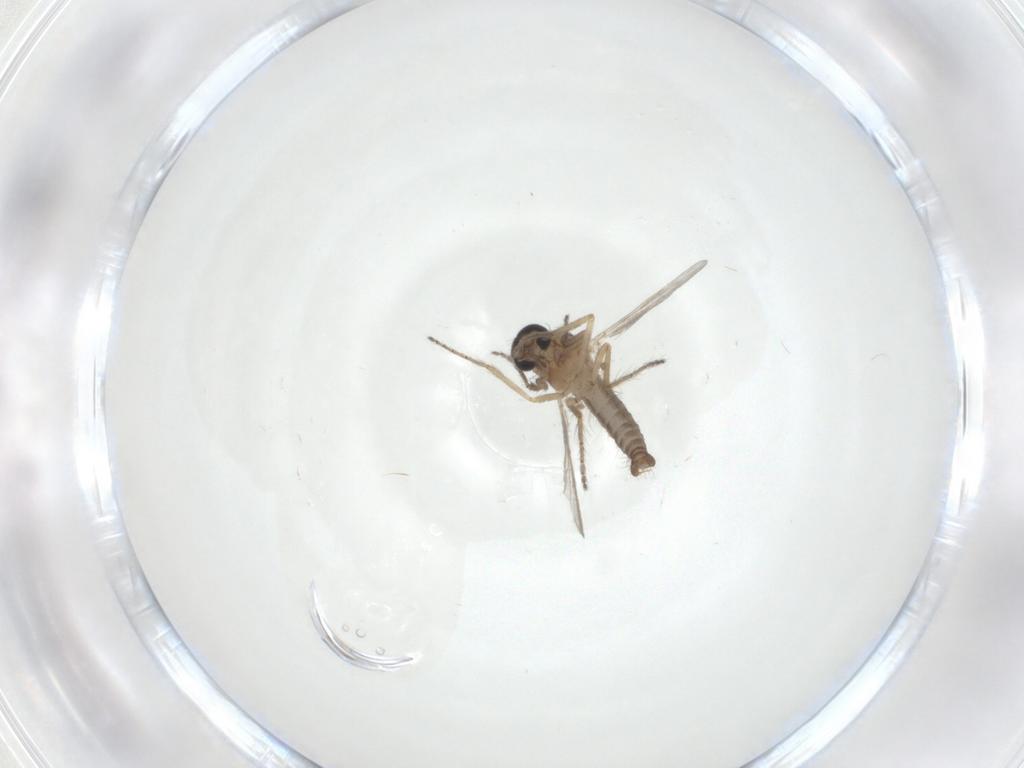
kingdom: Animalia
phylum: Arthropoda
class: Insecta
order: Diptera
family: Ceratopogonidae
